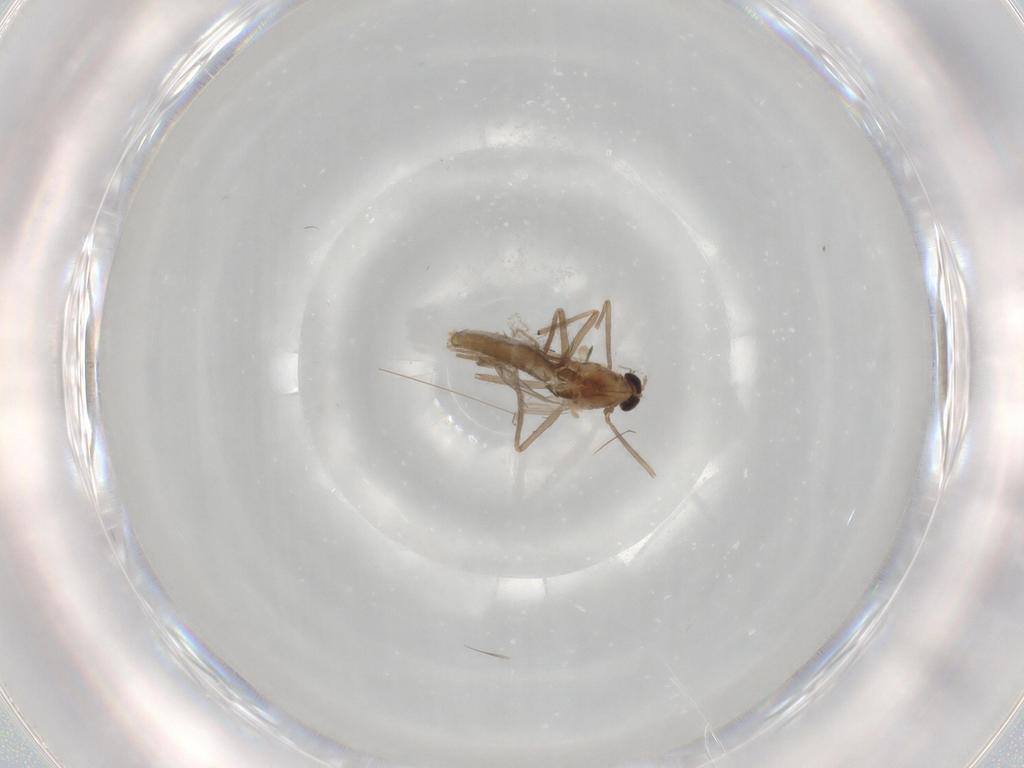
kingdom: Animalia
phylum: Arthropoda
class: Insecta
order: Diptera
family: Chironomidae
